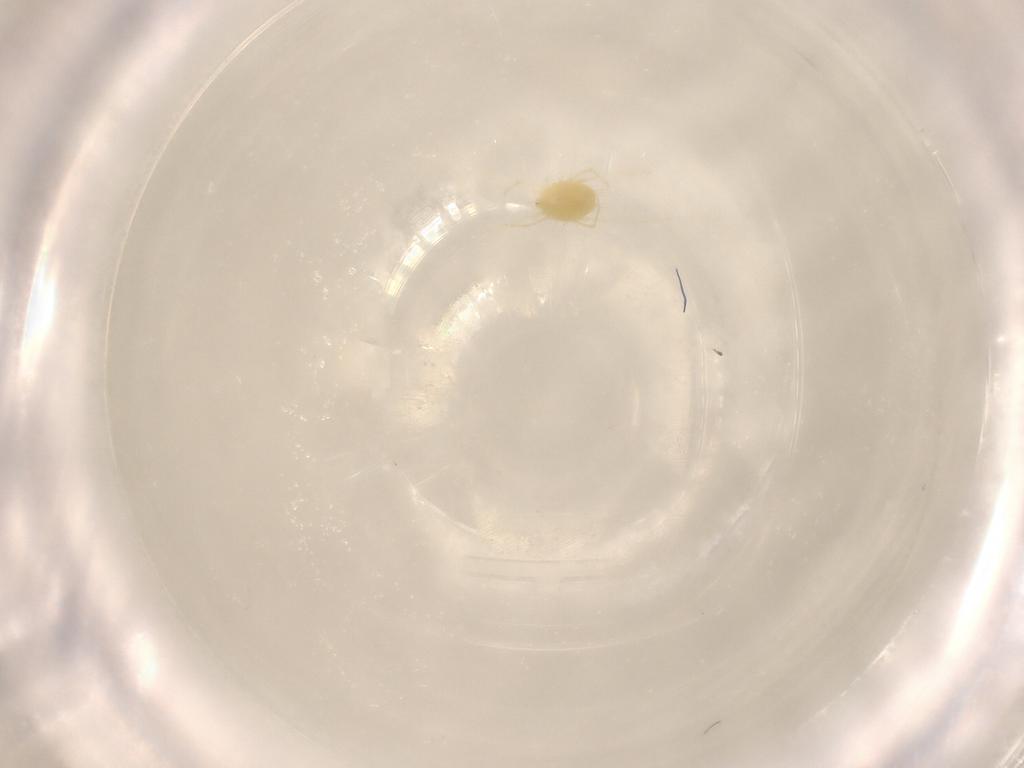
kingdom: Animalia
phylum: Arthropoda
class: Arachnida
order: Trombidiformes
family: Tetranychidae
